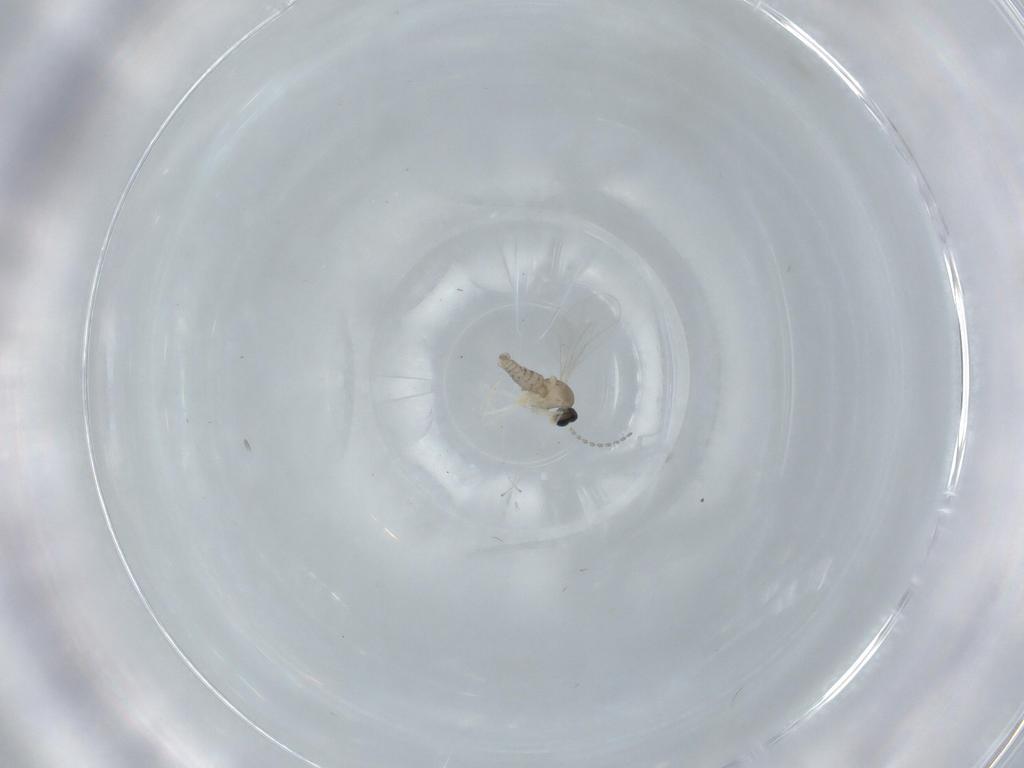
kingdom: Animalia
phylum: Arthropoda
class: Insecta
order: Diptera
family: Cecidomyiidae
